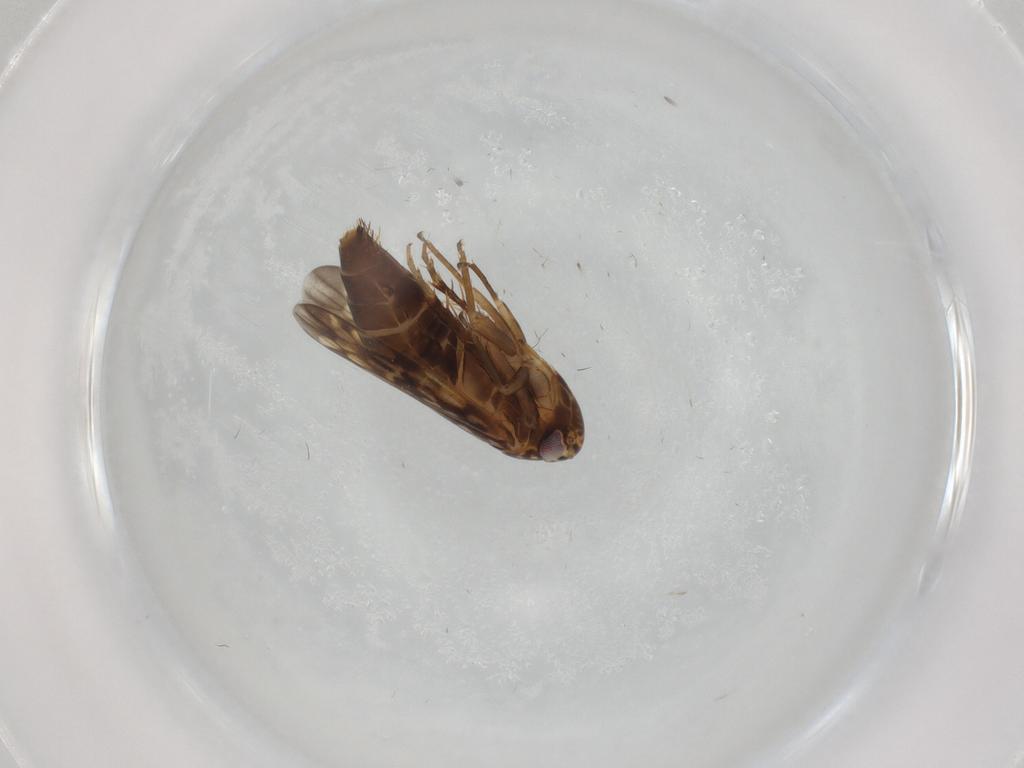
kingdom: Animalia
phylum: Arthropoda
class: Insecta
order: Hemiptera
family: Cicadellidae
